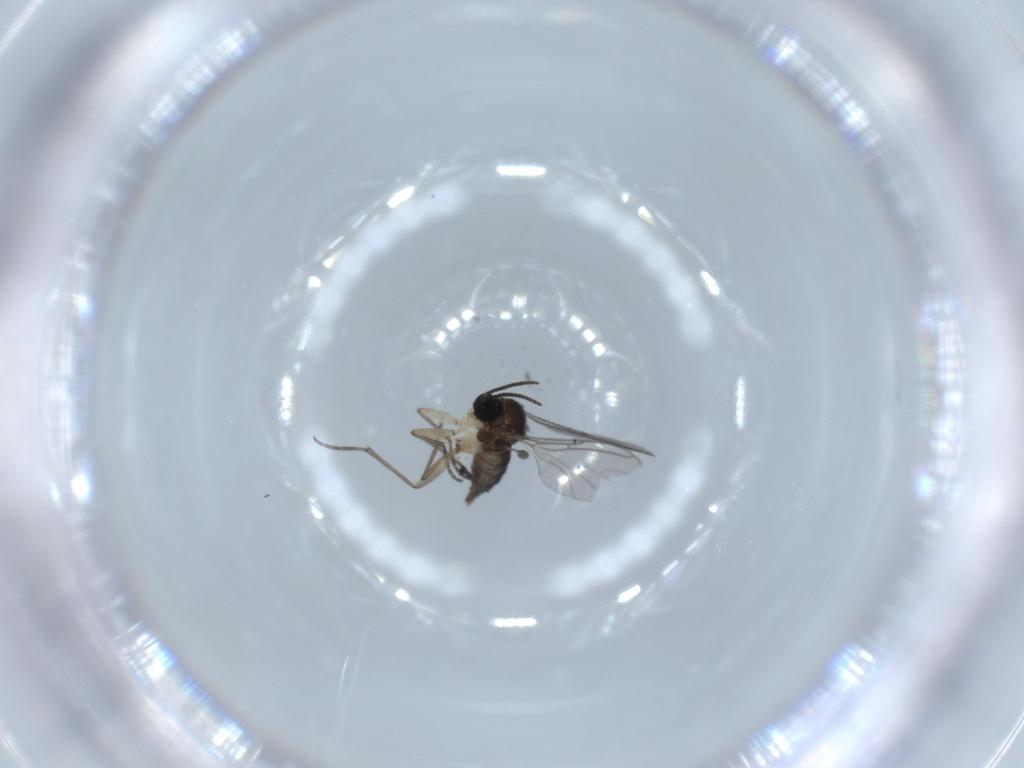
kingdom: Animalia
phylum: Arthropoda
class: Insecta
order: Diptera
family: Sciaridae
